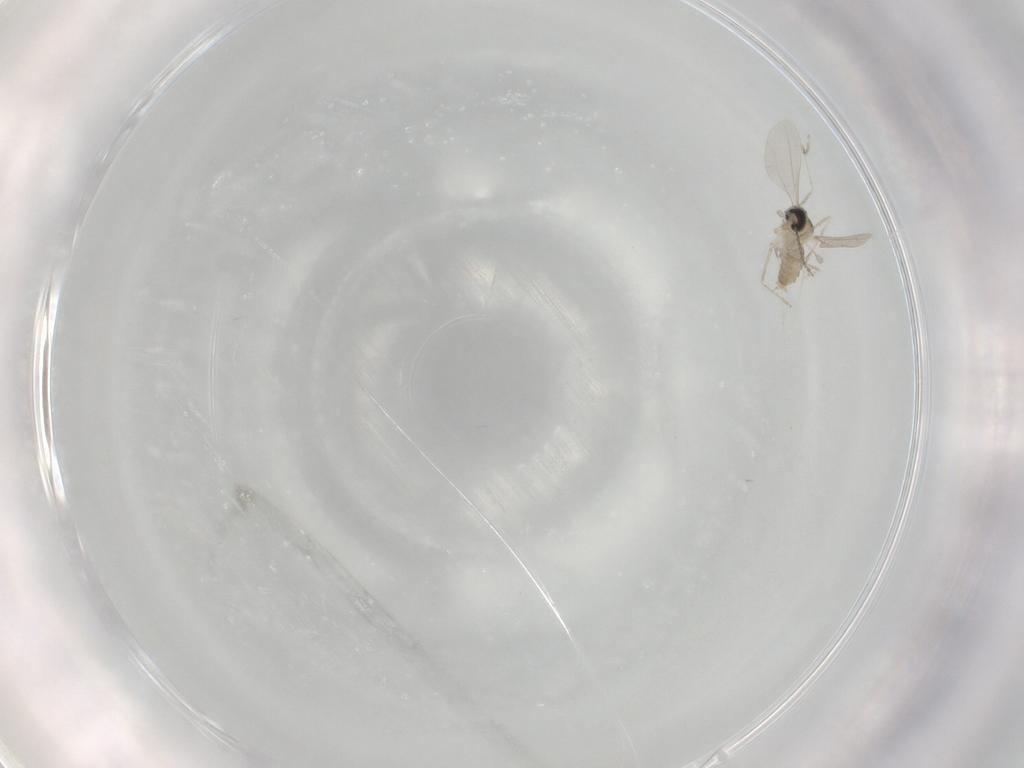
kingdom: Animalia
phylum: Arthropoda
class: Insecta
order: Diptera
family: Cecidomyiidae
